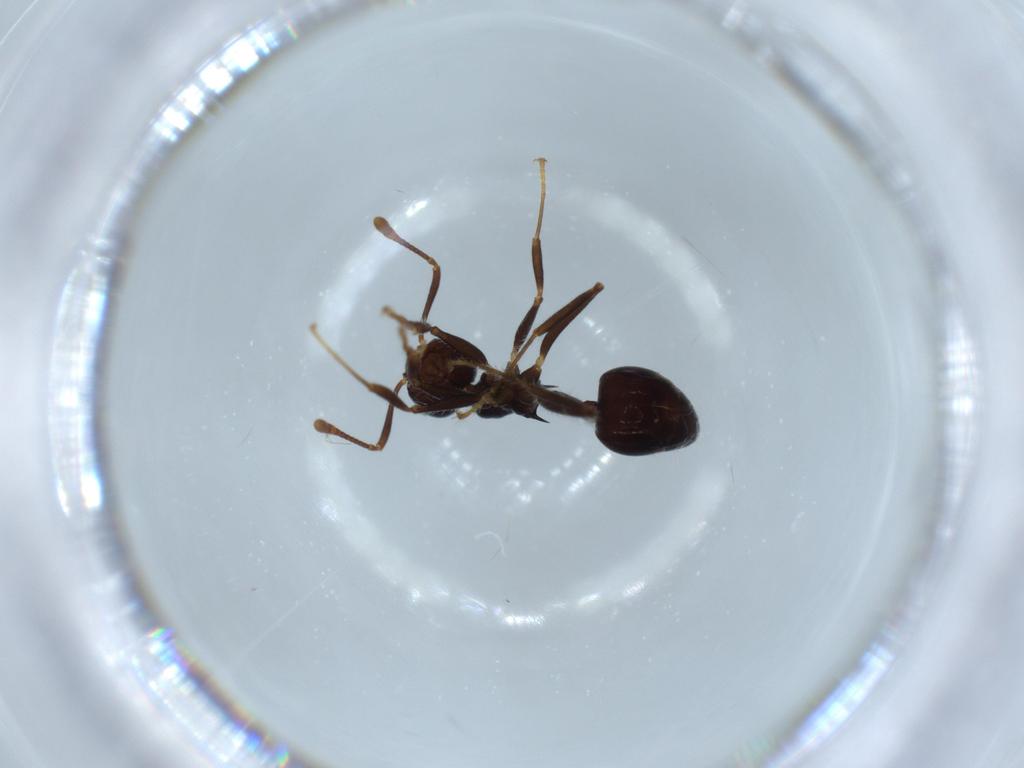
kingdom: Animalia
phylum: Arthropoda
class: Insecta
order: Hymenoptera
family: Formicidae
